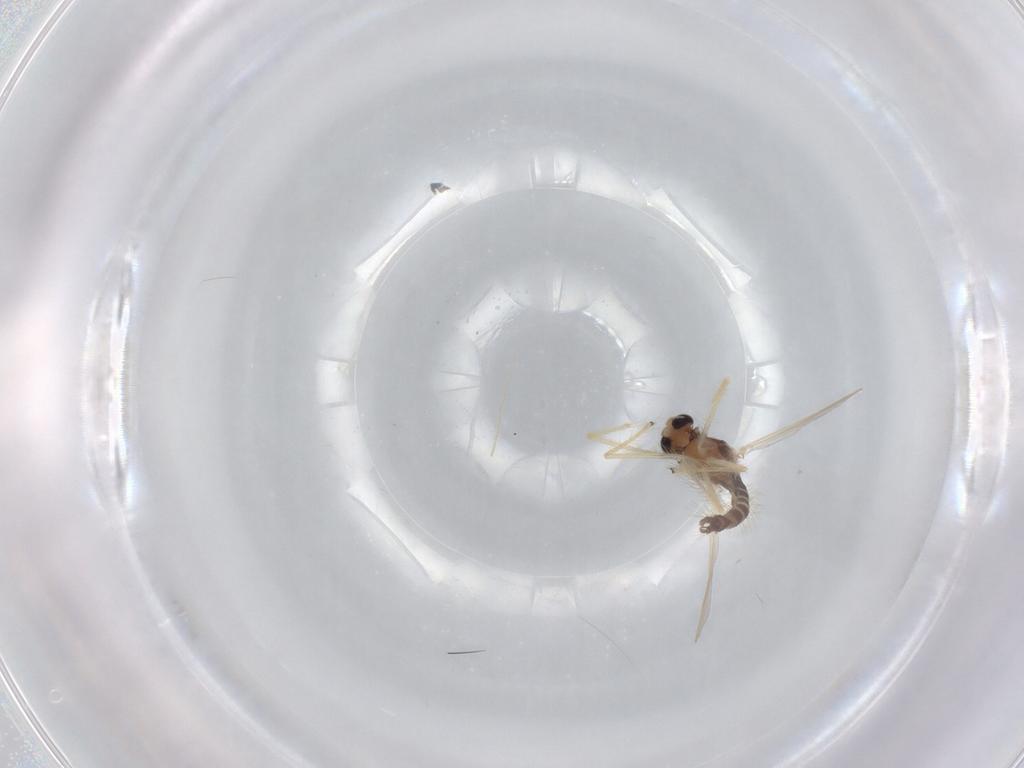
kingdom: Animalia
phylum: Arthropoda
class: Insecta
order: Diptera
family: Chironomidae
